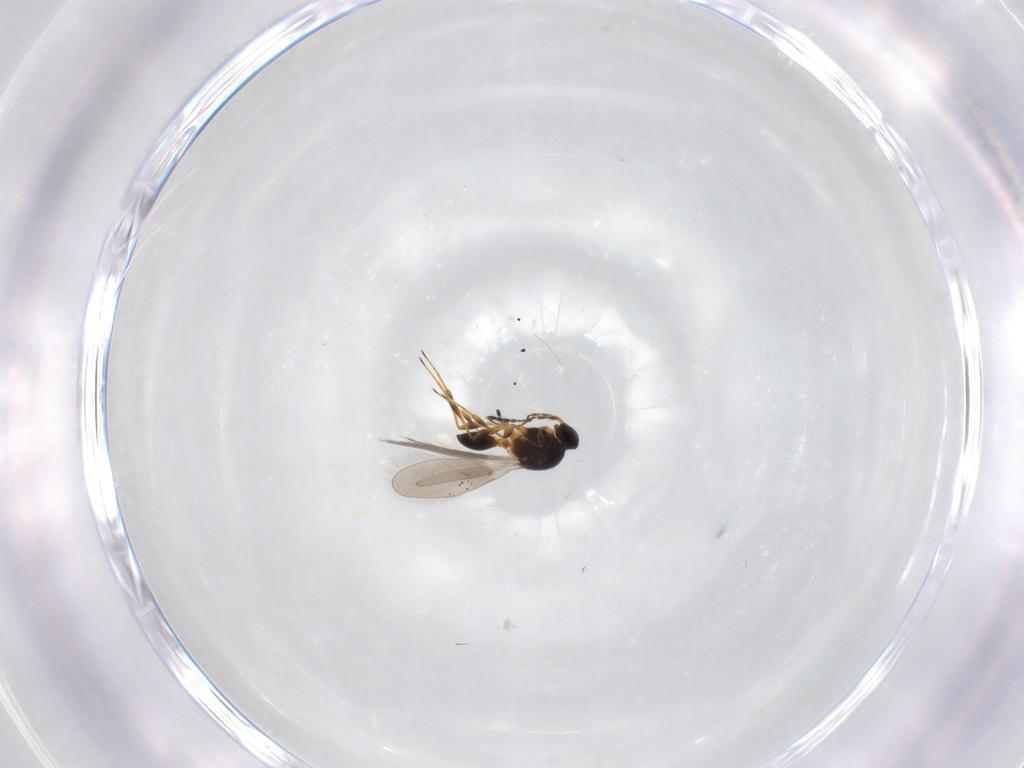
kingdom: Animalia
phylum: Arthropoda
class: Insecta
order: Hymenoptera
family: Platygastridae
